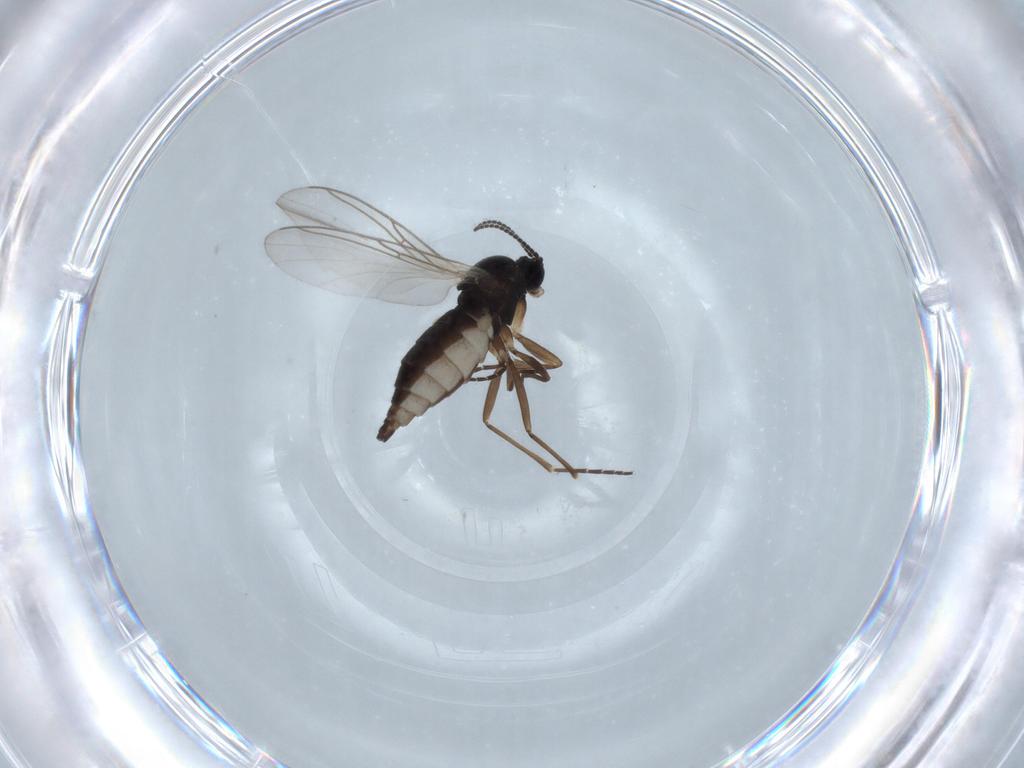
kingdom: Animalia
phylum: Arthropoda
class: Insecta
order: Diptera
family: Sciaridae
